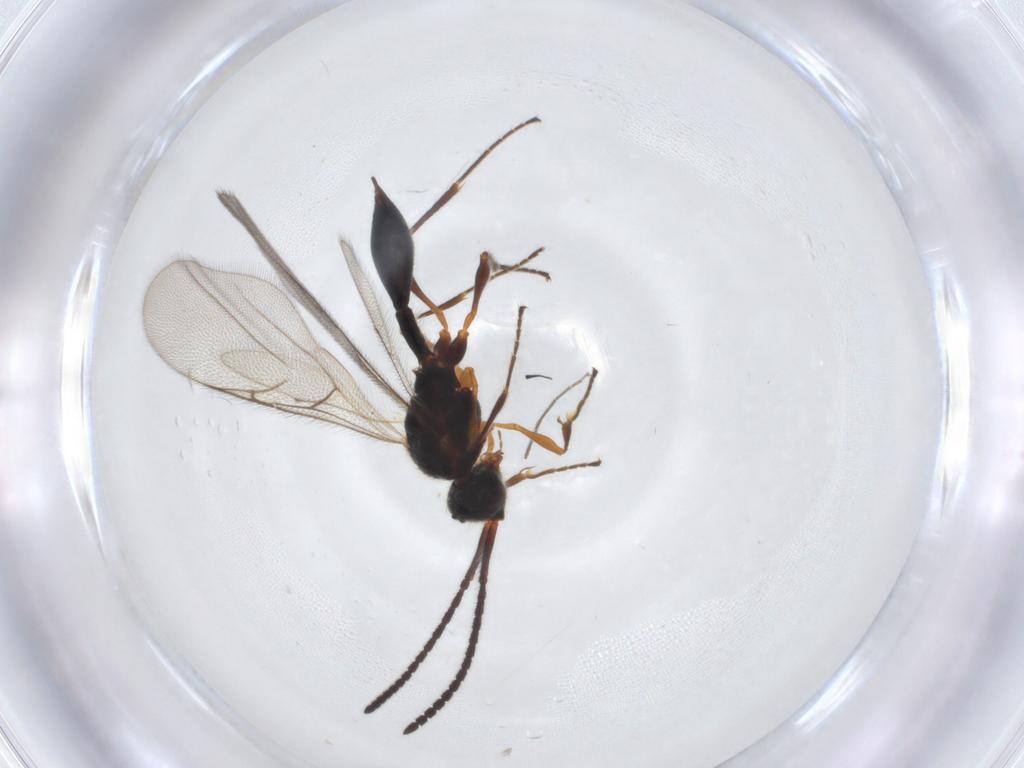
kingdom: Animalia
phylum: Arthropoda
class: Insecta
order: Hymenoptera
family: Diapriidae
